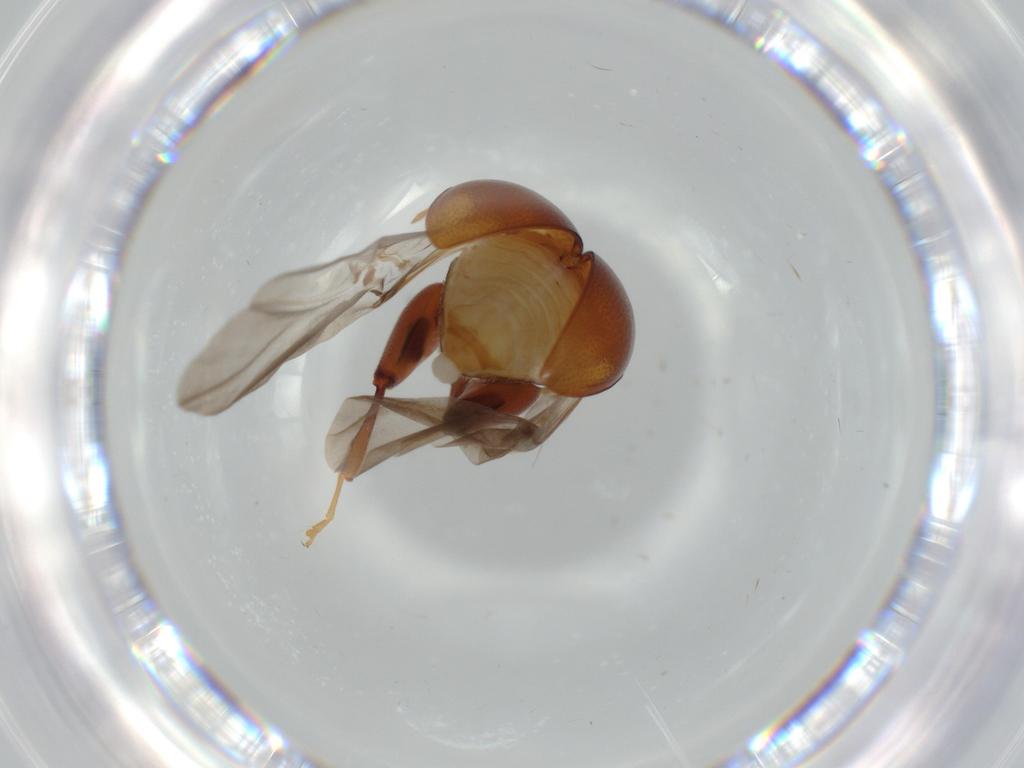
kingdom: Animalia
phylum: Arthropoda
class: Insecta
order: Coleoptera
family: Chrysomelidae
